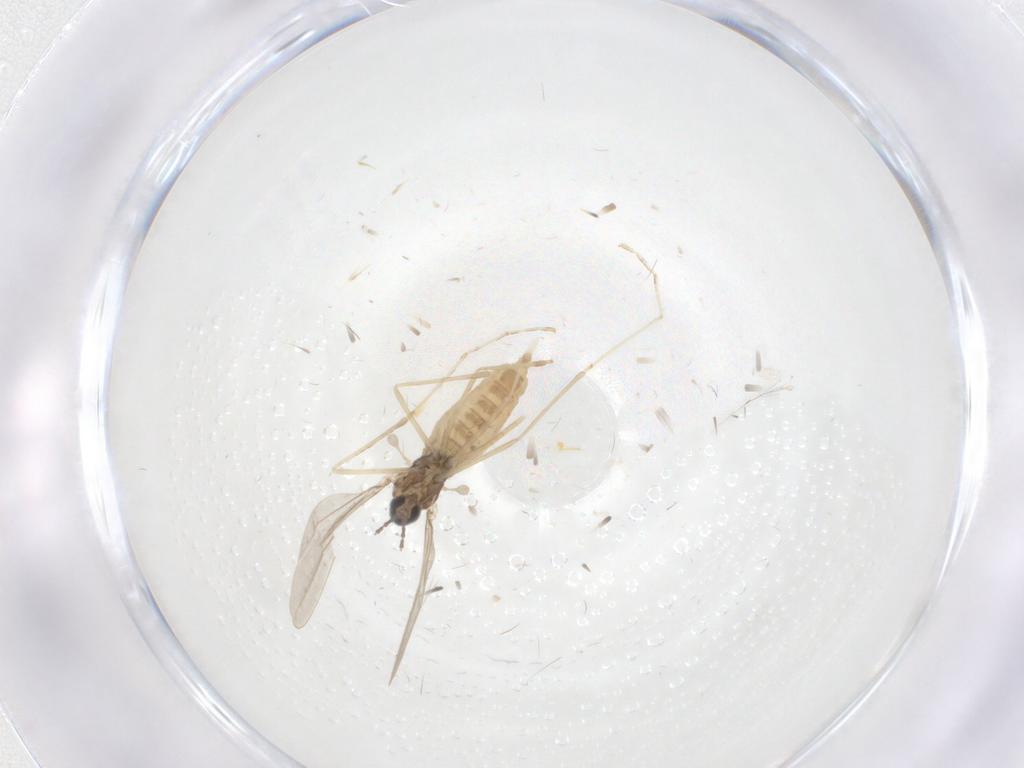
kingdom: Animalia
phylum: Arthropoda
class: Insecta
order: Diptera
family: Cecidomyiidae
